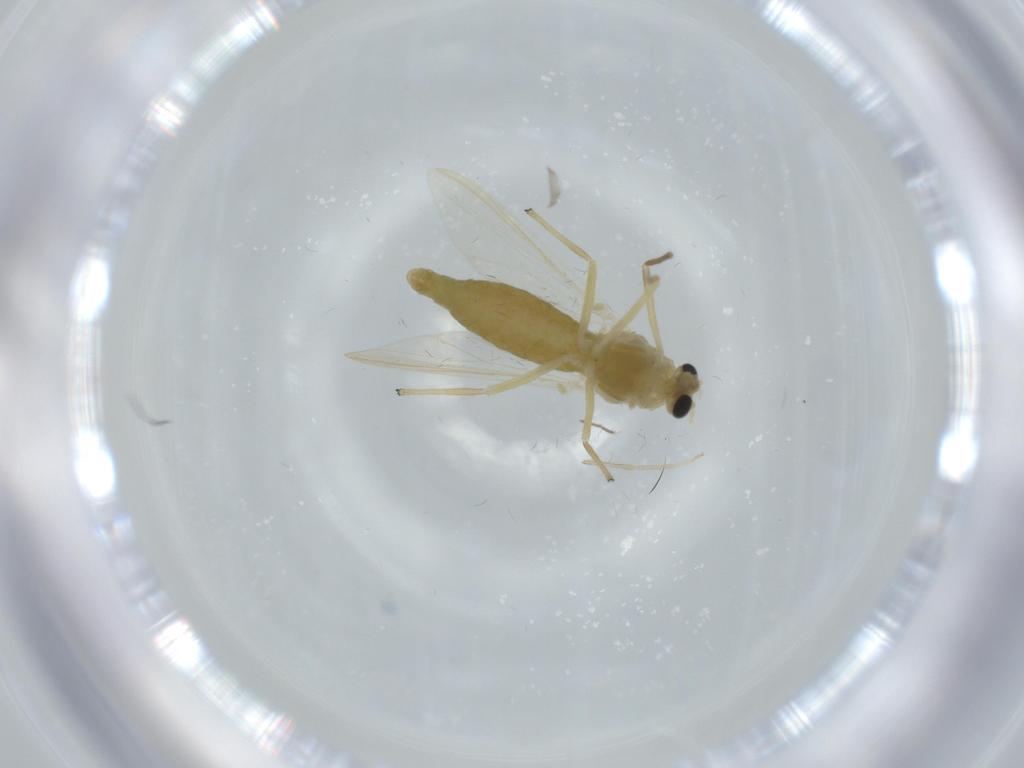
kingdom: Animalia
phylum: Arthropoda
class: Insecta
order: Diptera
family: Chironomidae
